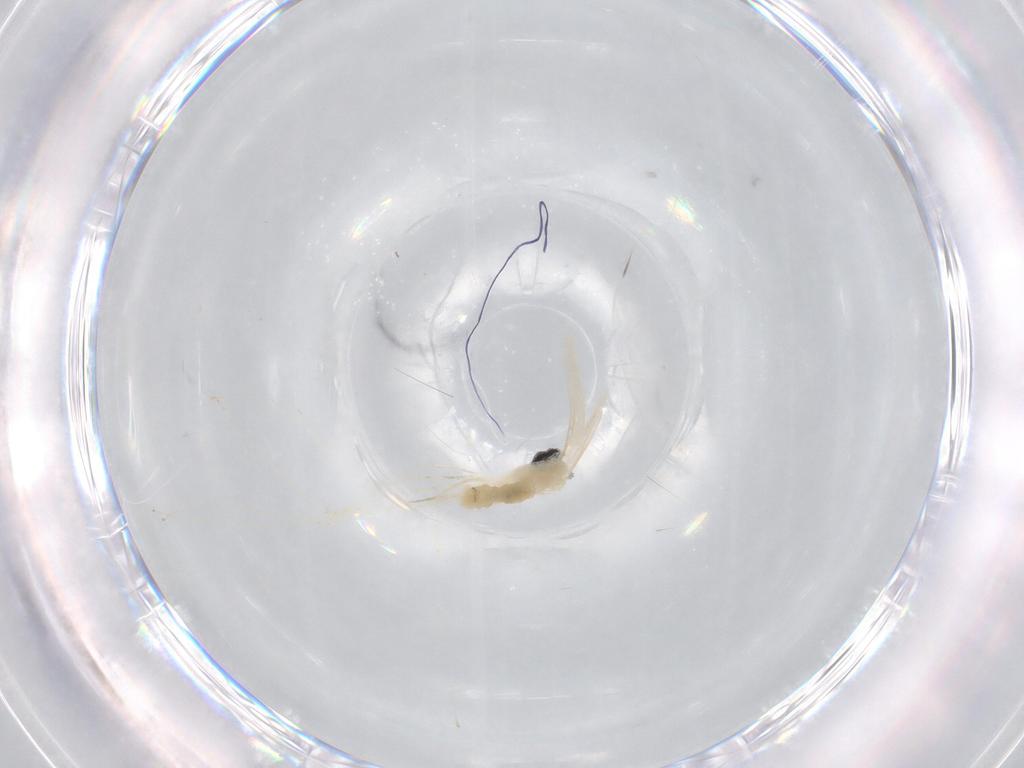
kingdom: Animalia
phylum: Arthropoda
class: Insecta
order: Diptera
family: Cecidomyiidae
